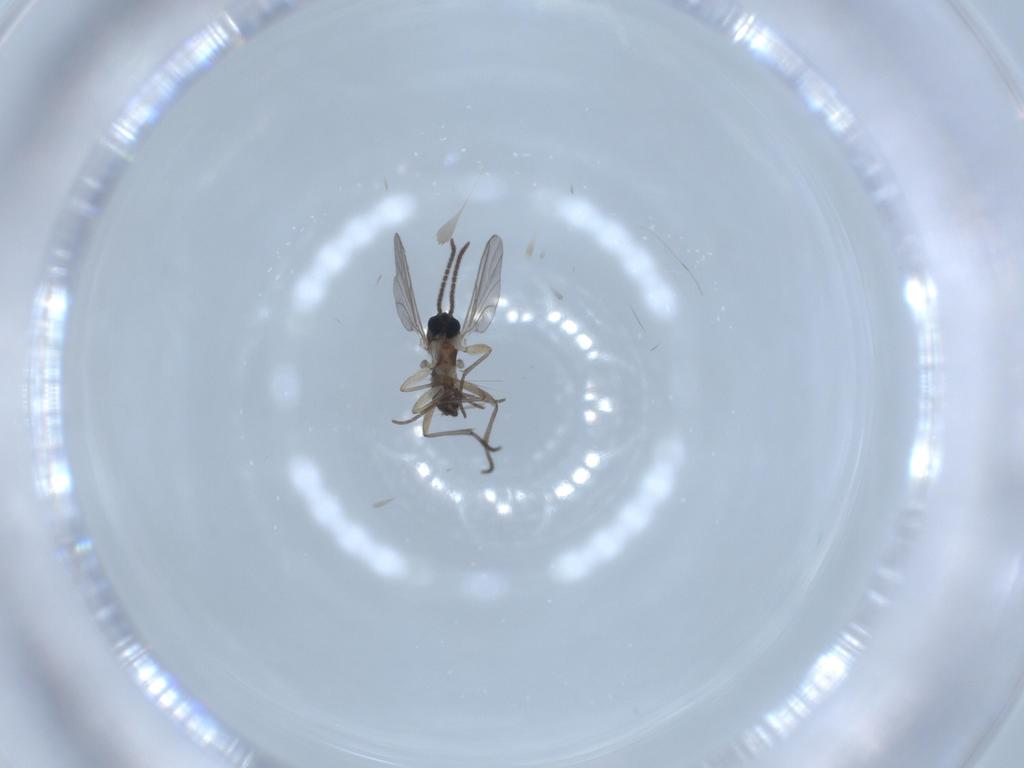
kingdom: Animalia
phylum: Arthropoda
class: Insecta
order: Diptera
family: Sciaridae
